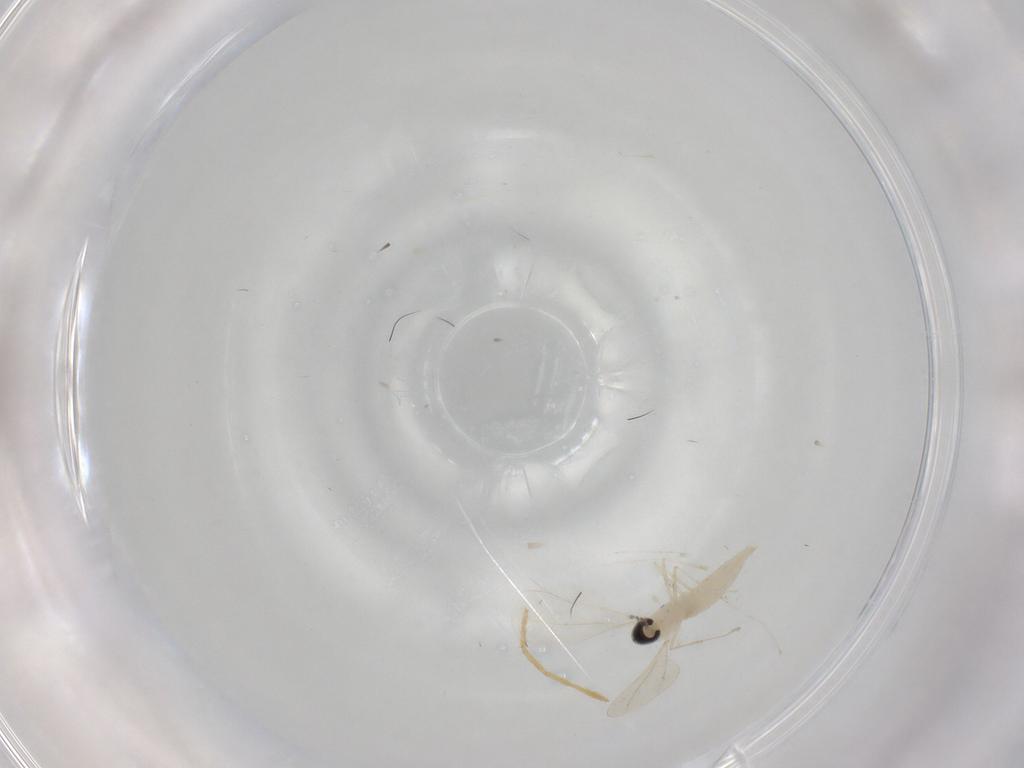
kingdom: Animalia
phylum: Arthropoda
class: Insecta
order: Diptera
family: Cecidomyiidae
